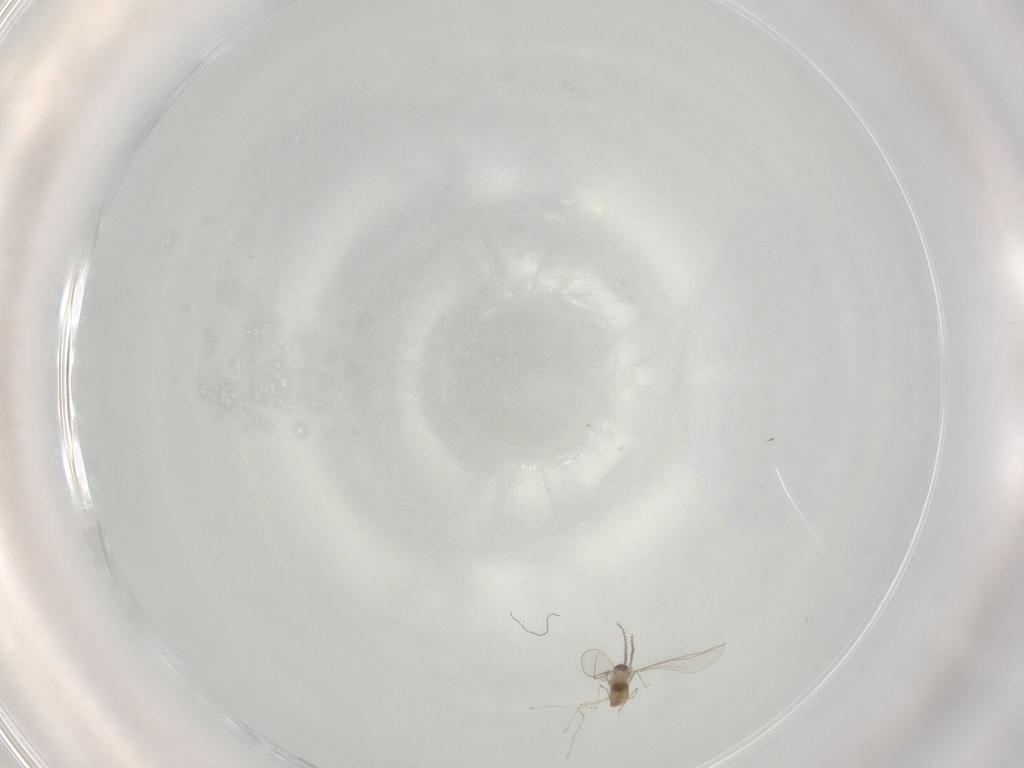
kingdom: Animalia
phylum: Arthropoda
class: Insecta
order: Diptera
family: Cecidomyiidae
